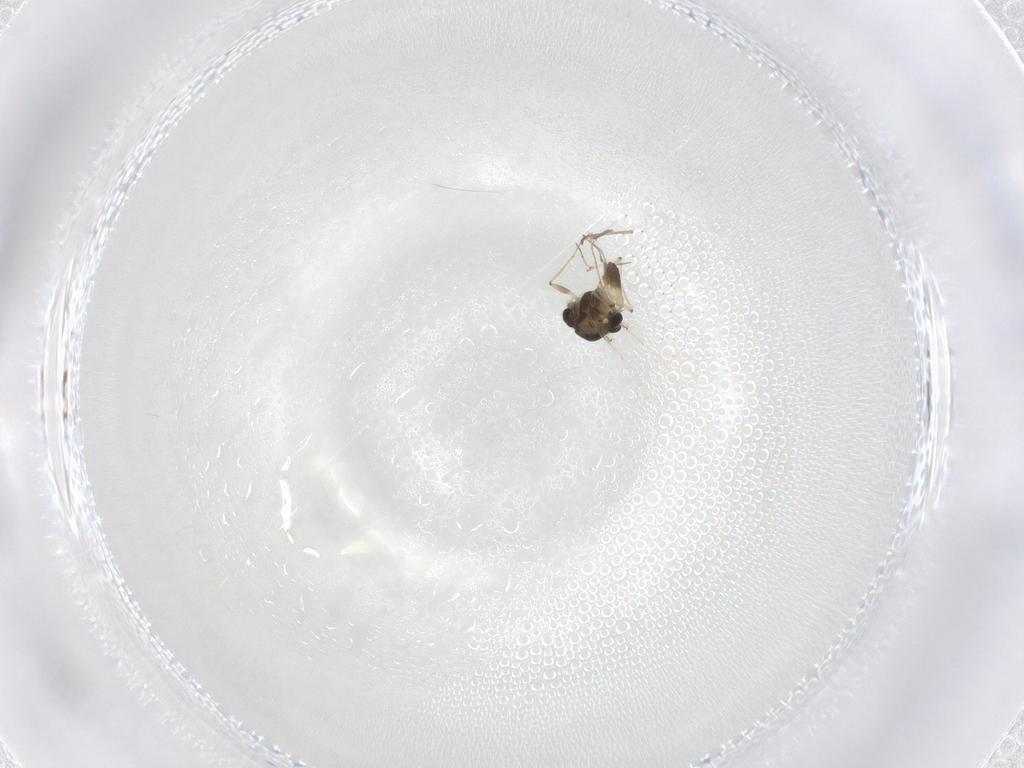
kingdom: Animalia
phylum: Arthropoda
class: Insecta
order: Diptera
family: Chironomidae
